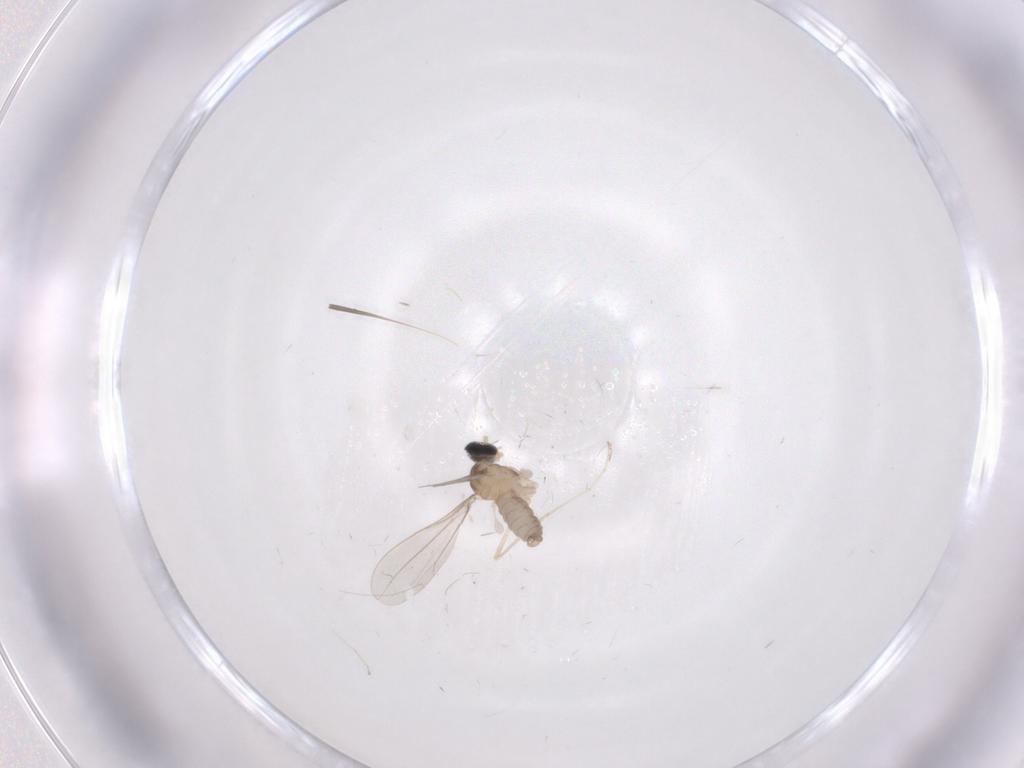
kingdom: Animalia
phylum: Arthropoda
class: Insecta
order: Diptera
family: Cecidomyiidae
